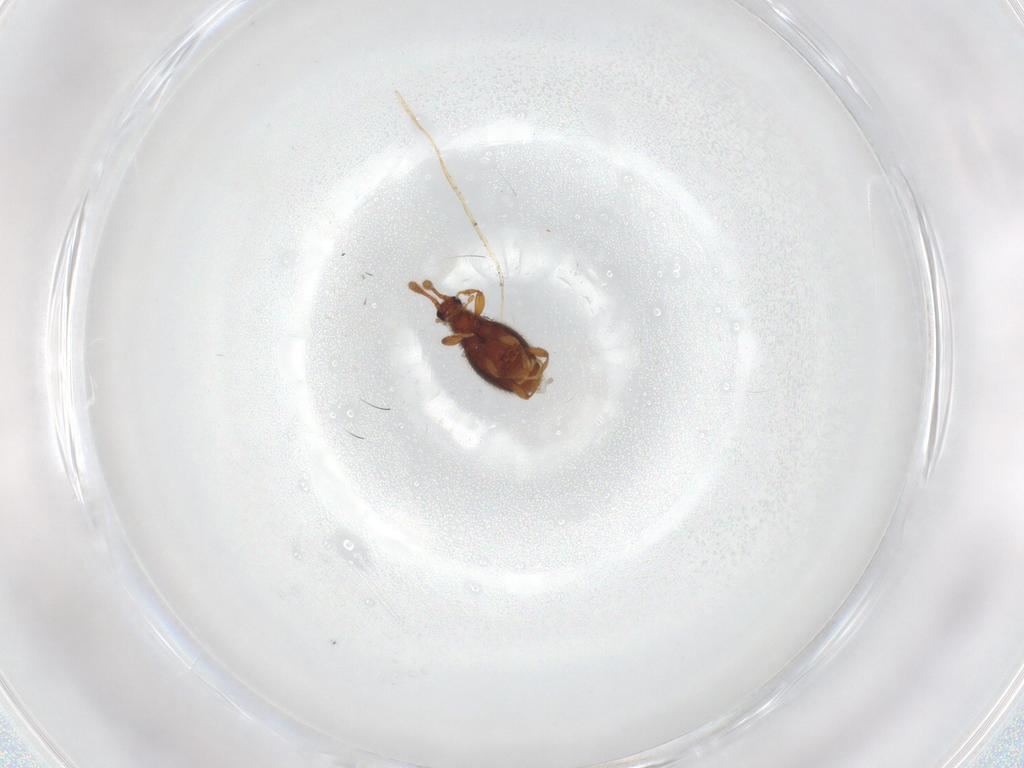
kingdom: Animalia
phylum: Arthropoda
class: Insecta
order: Coleoptera
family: Staphylinidae
